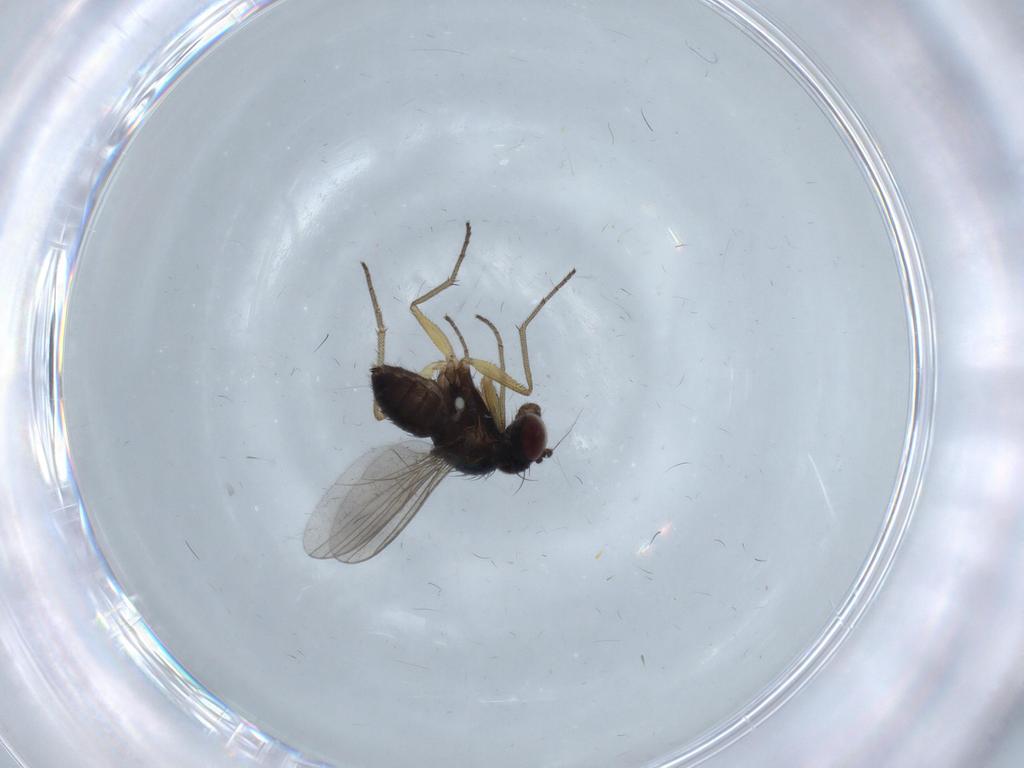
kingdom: Animalia
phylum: Arthropoda
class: Insecta
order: Diptera
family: Dolichopodidae
